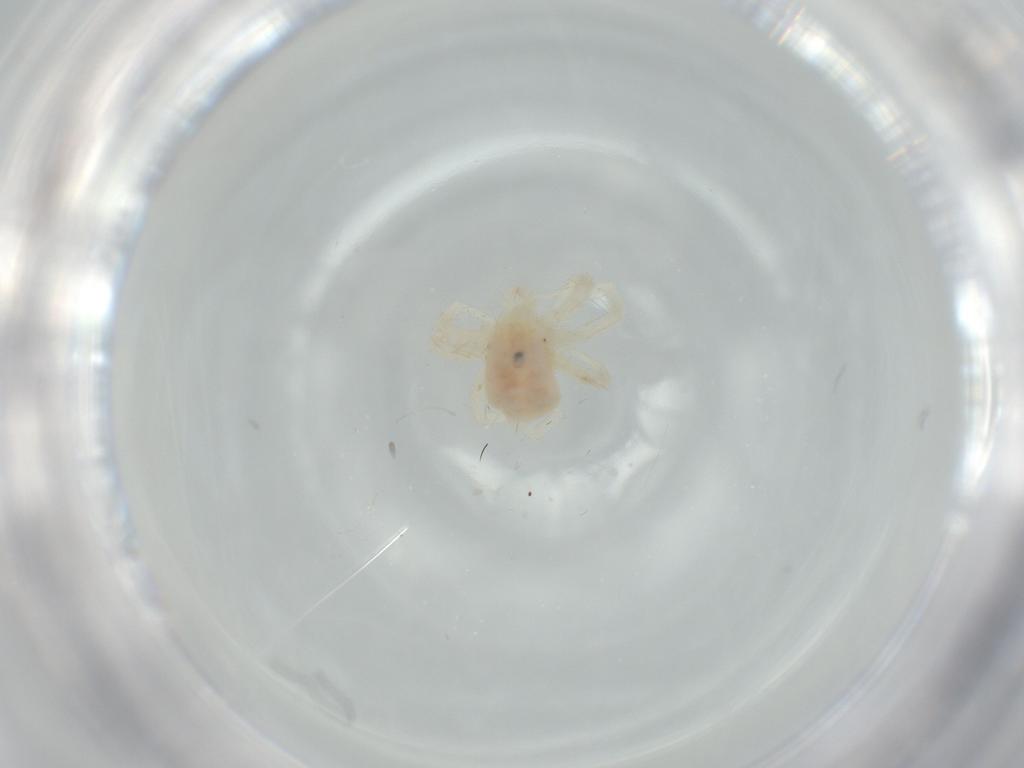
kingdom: Animalia
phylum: Arthropoda
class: Arachnida
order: Trombidiformes
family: Anystidae
